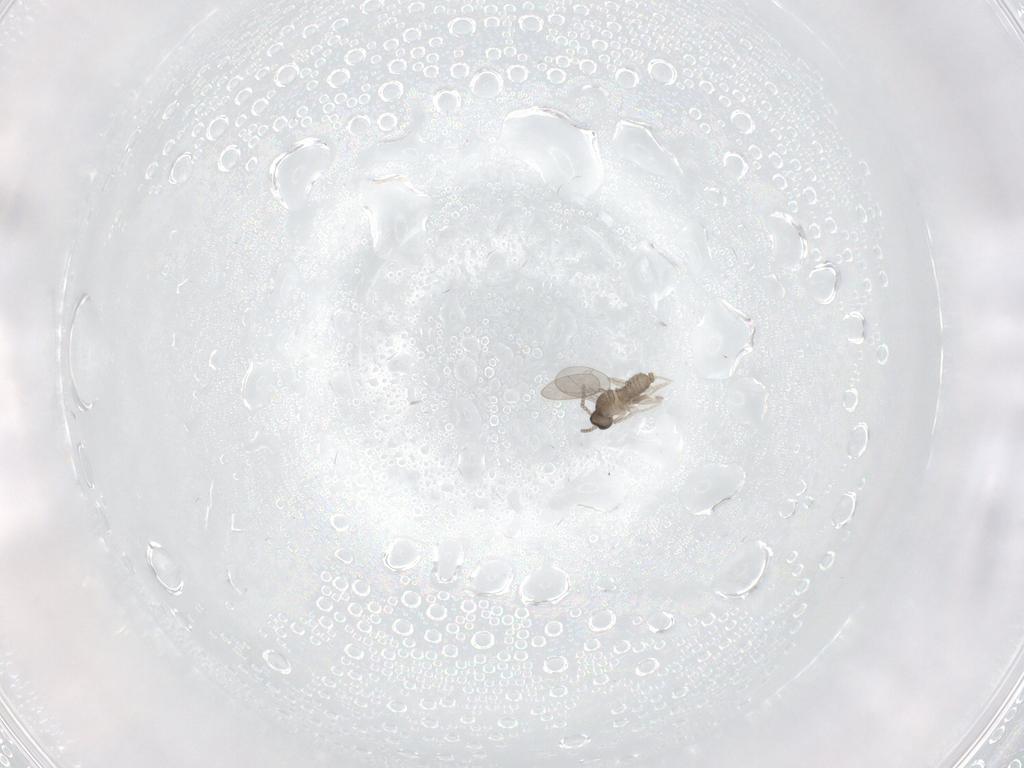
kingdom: Animalia
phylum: Arthropoda
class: Insecta
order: Diptera
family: Cecidomyiidae
